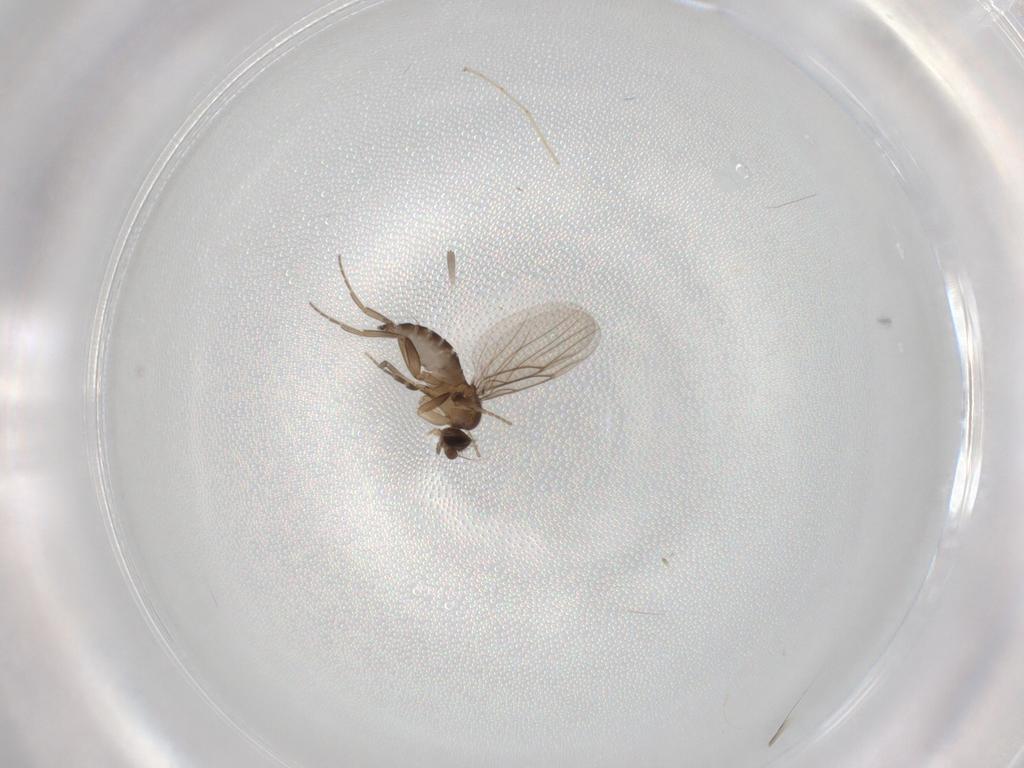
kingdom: Animalia
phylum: Arthropoda
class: Insecta
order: Diptera
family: Phoridae
